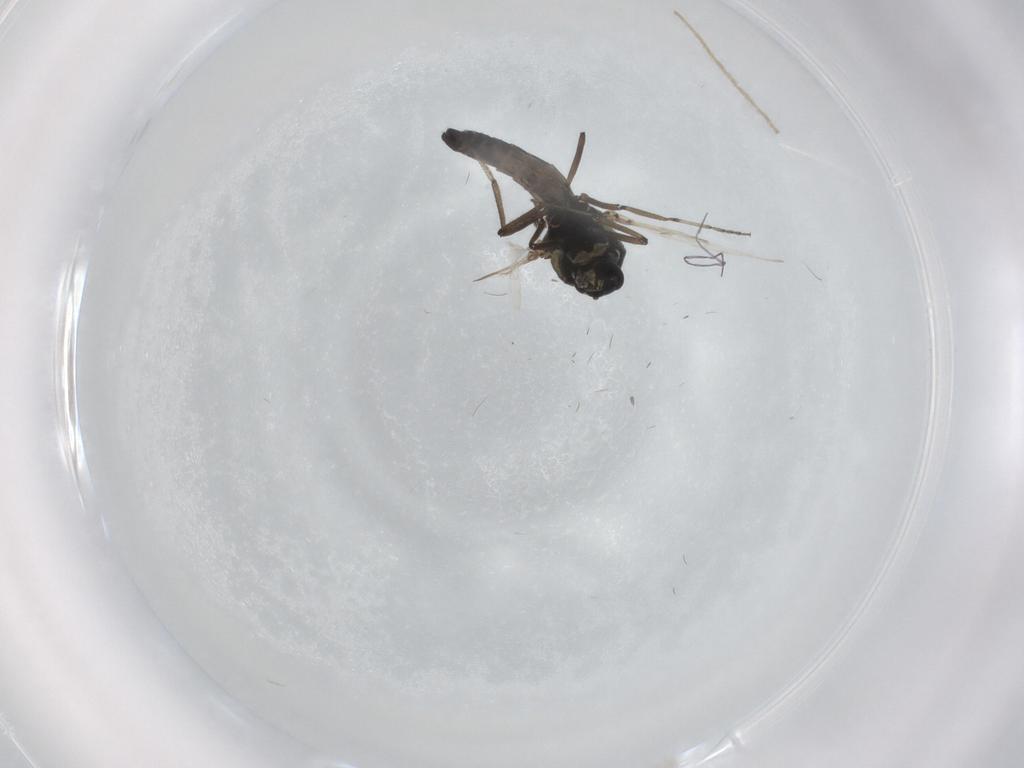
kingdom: Animalia
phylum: Arthropoda
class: Insecta
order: Diptera
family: Ceratopogonidae
